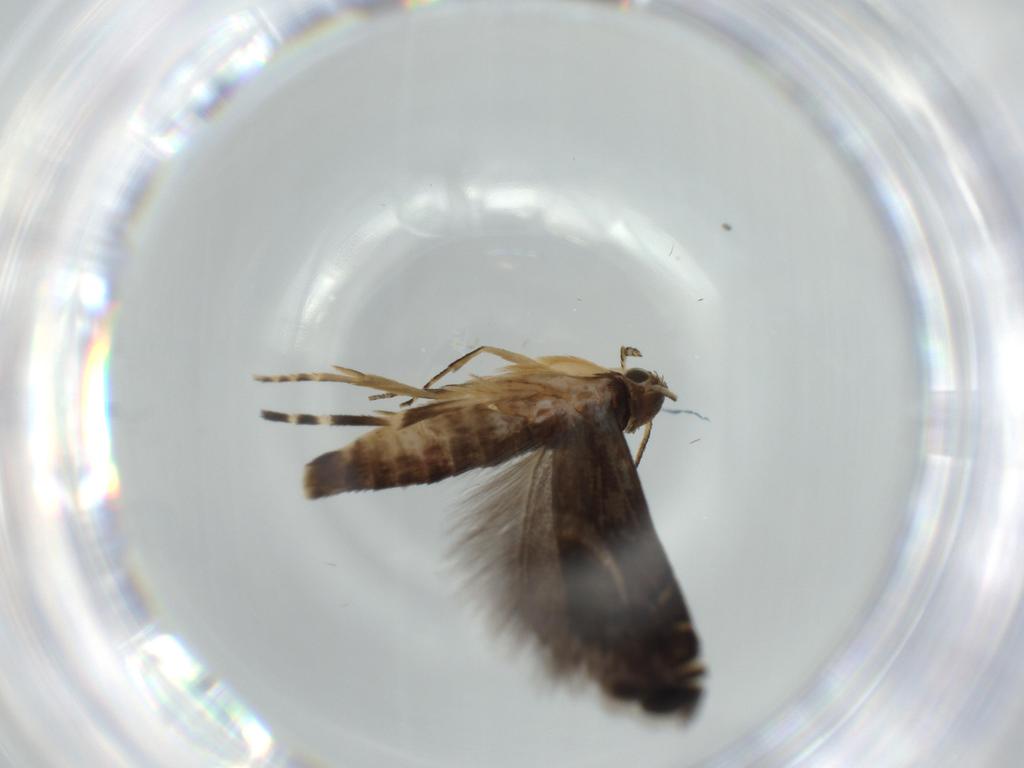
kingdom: Animalia
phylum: Arthropoda
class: Insecta
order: Lepidoptera
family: Glyphipterigidae
